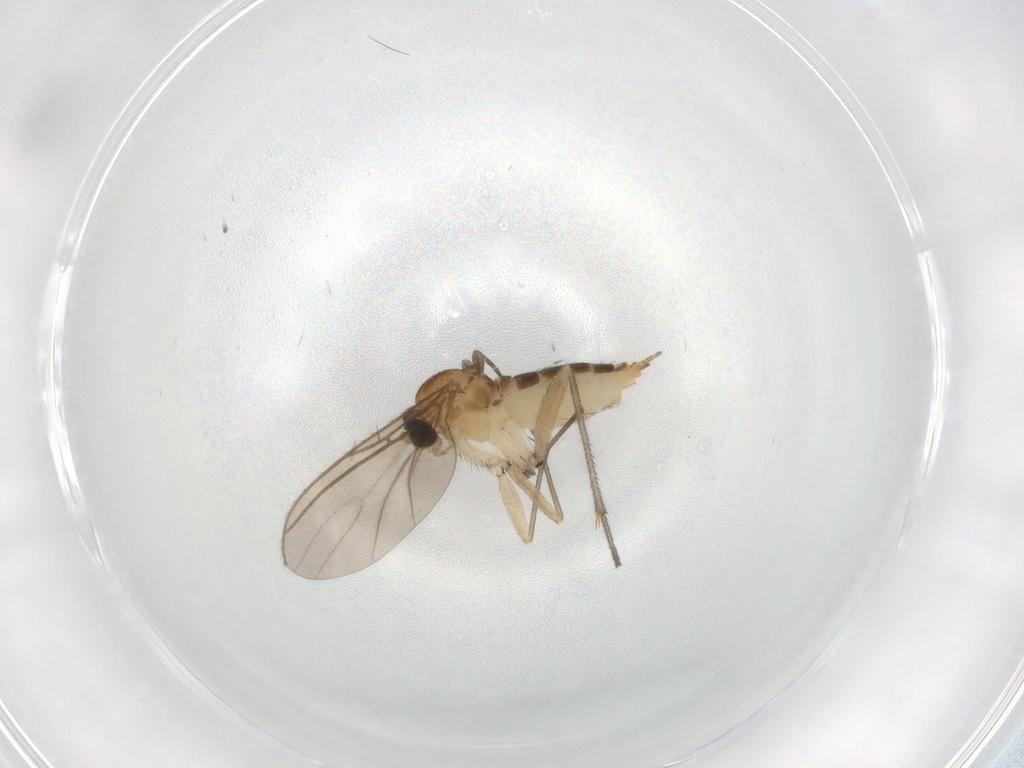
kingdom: Animalia
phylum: Arthropoda
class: Insecta
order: Diptera
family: Sciaridae
